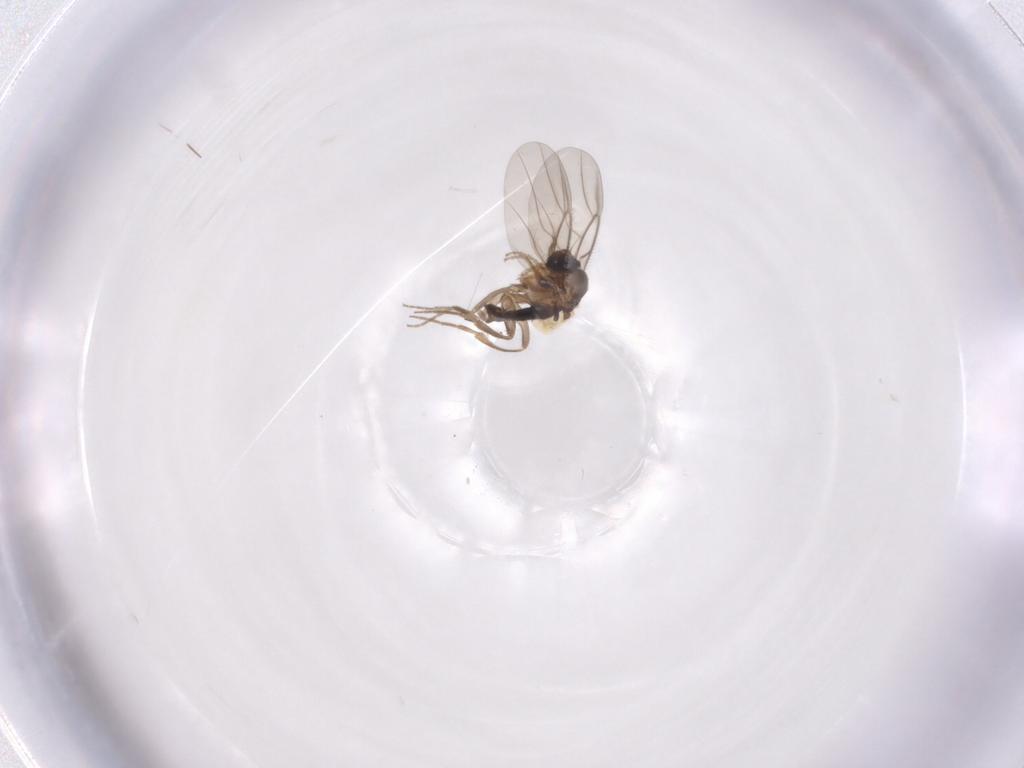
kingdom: Animalia
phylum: Arthropoda
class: Insecta
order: Diptera
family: Phoridae
